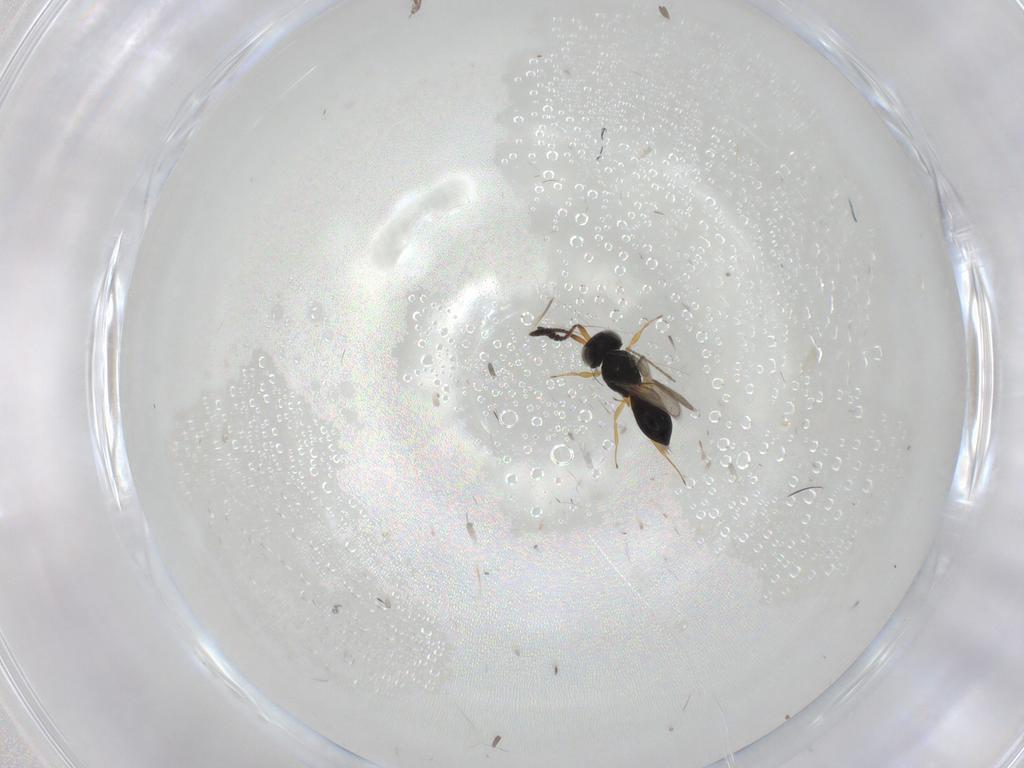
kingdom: Animalia
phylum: Arthropoda
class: Insecta
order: Hymenoptera
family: Scelionidae
